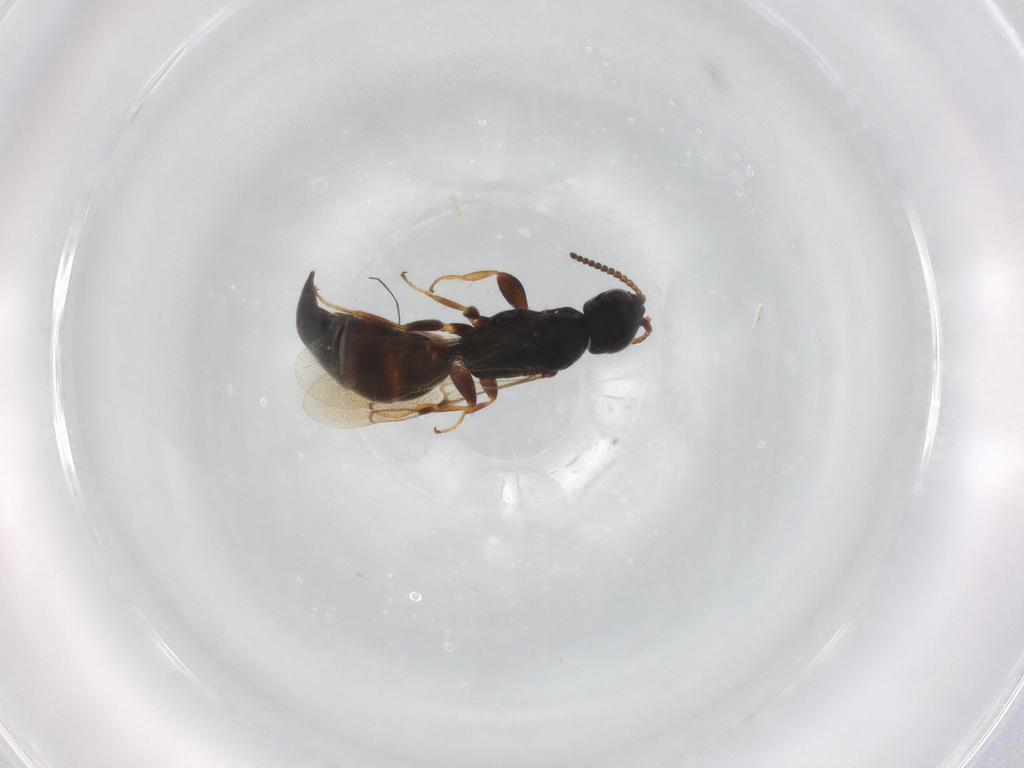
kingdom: Animalia
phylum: Arthropoda
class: Insecta
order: Hymenoptera
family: Bethylidae
